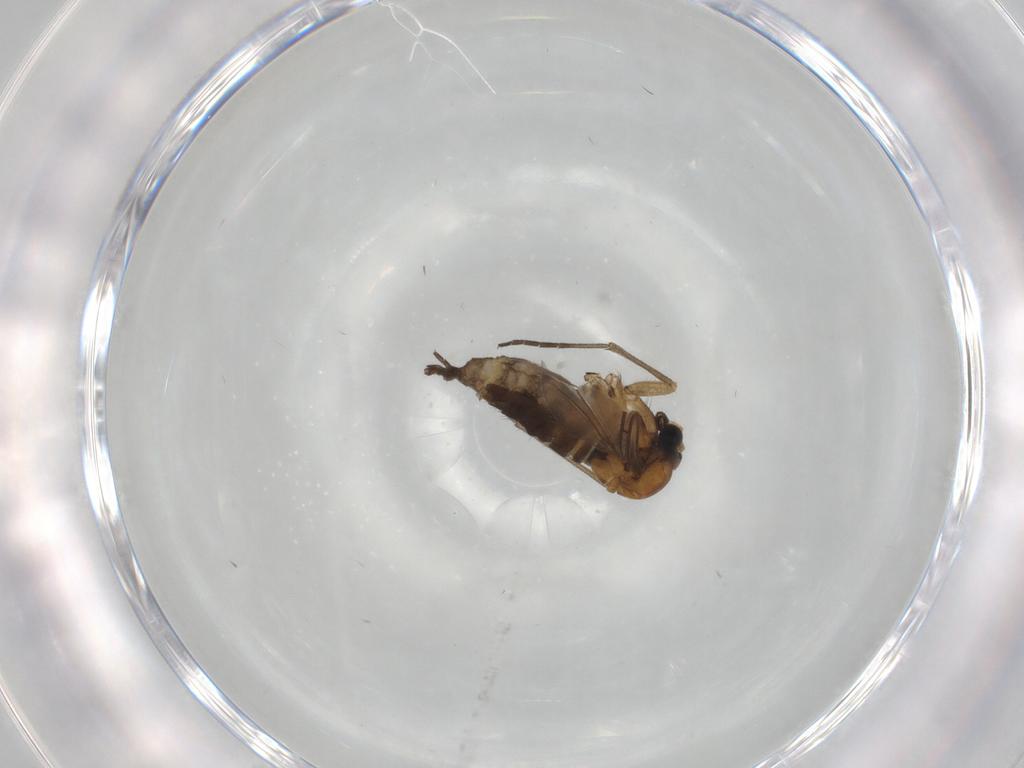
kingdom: Animalia
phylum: Arthropoda
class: Insecta
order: Diptera
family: Sciaridae
